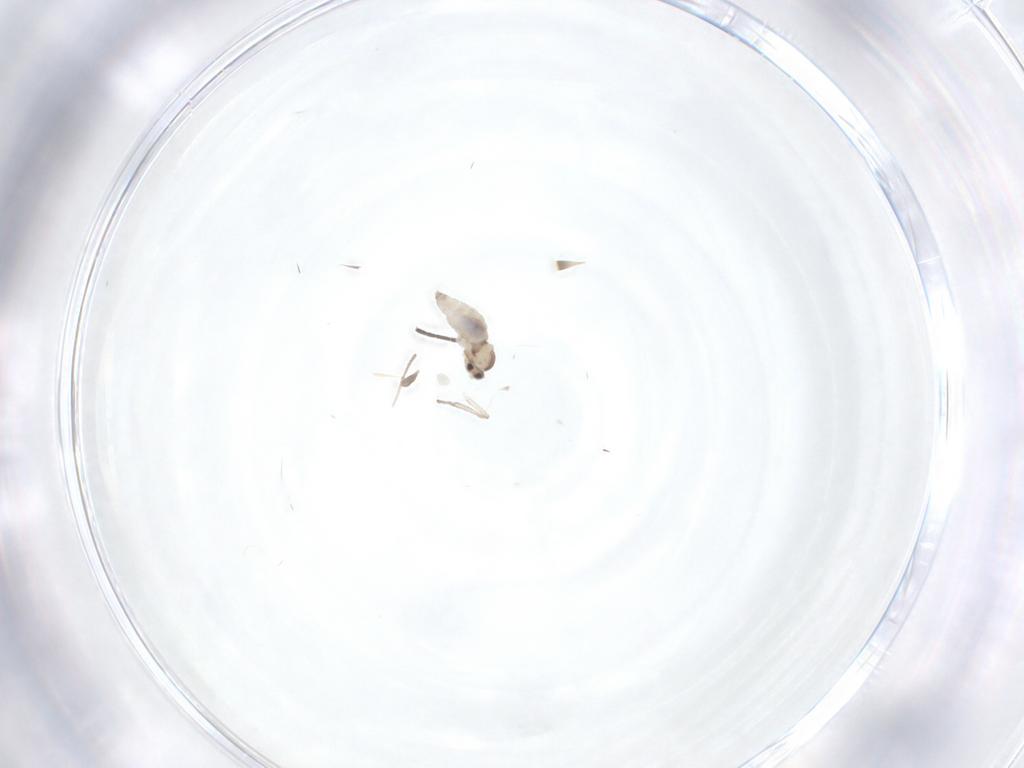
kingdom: Animalia
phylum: Arthropoda
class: Insecta
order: Diptera
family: Sciaridae
